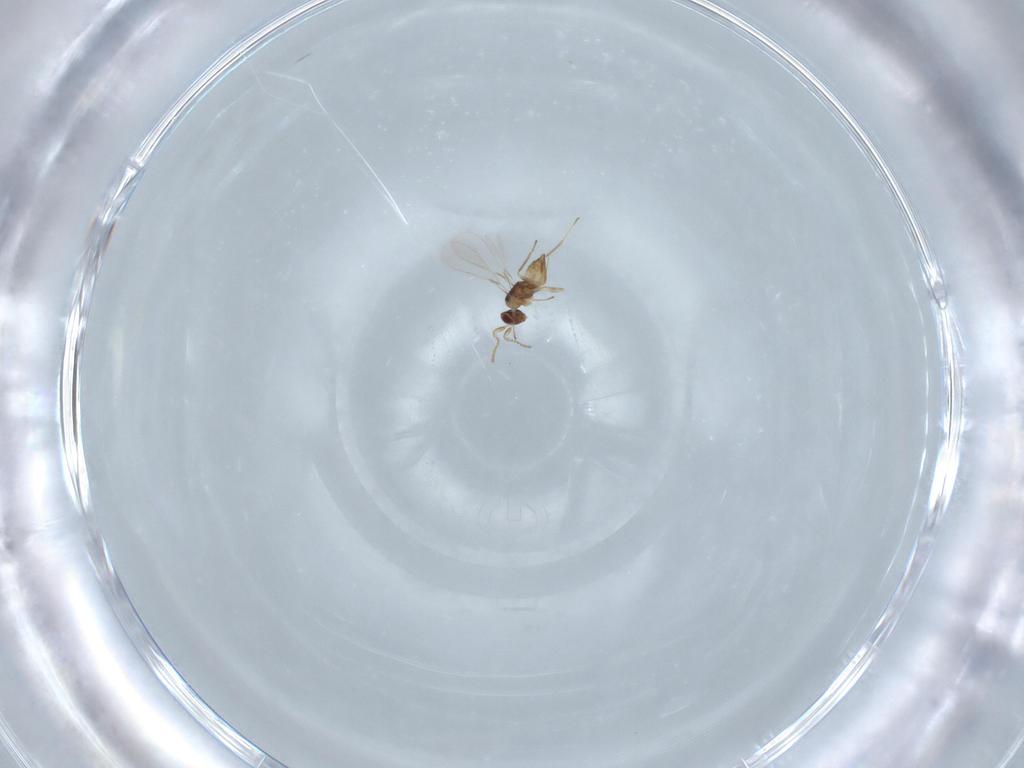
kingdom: Animalia
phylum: Arthropoda
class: Insecta
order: Hymenoptera
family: Mymaridae
